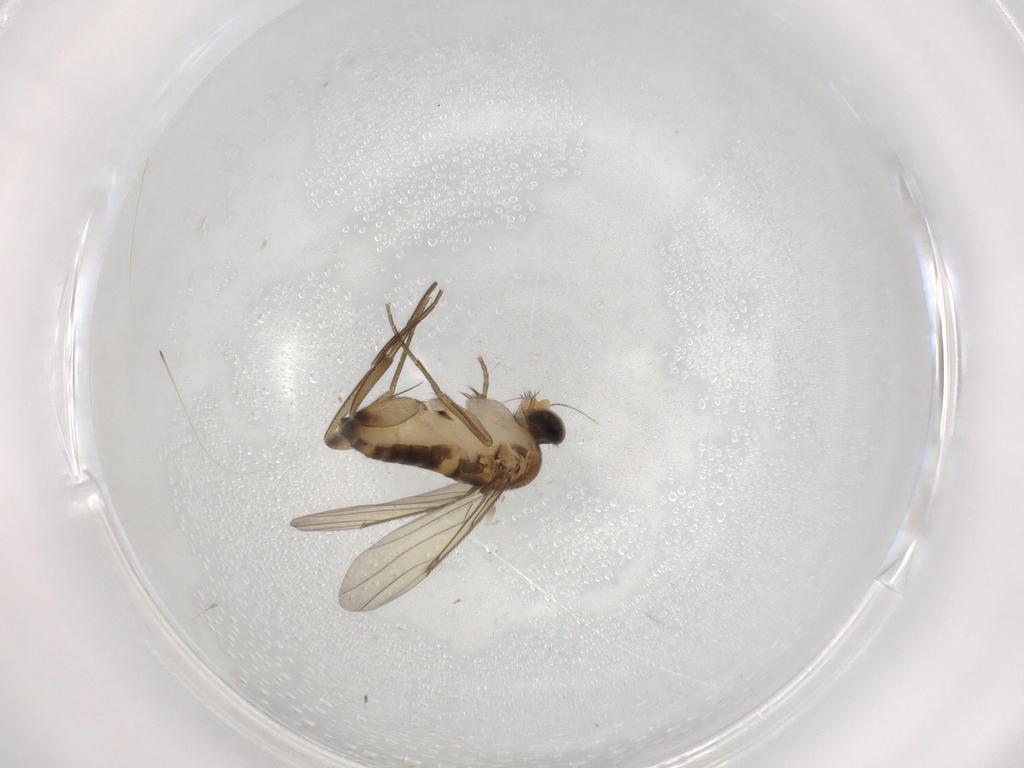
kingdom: Animalia
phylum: Arthropoda
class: Insecta
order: Diptera
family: Phoridae
